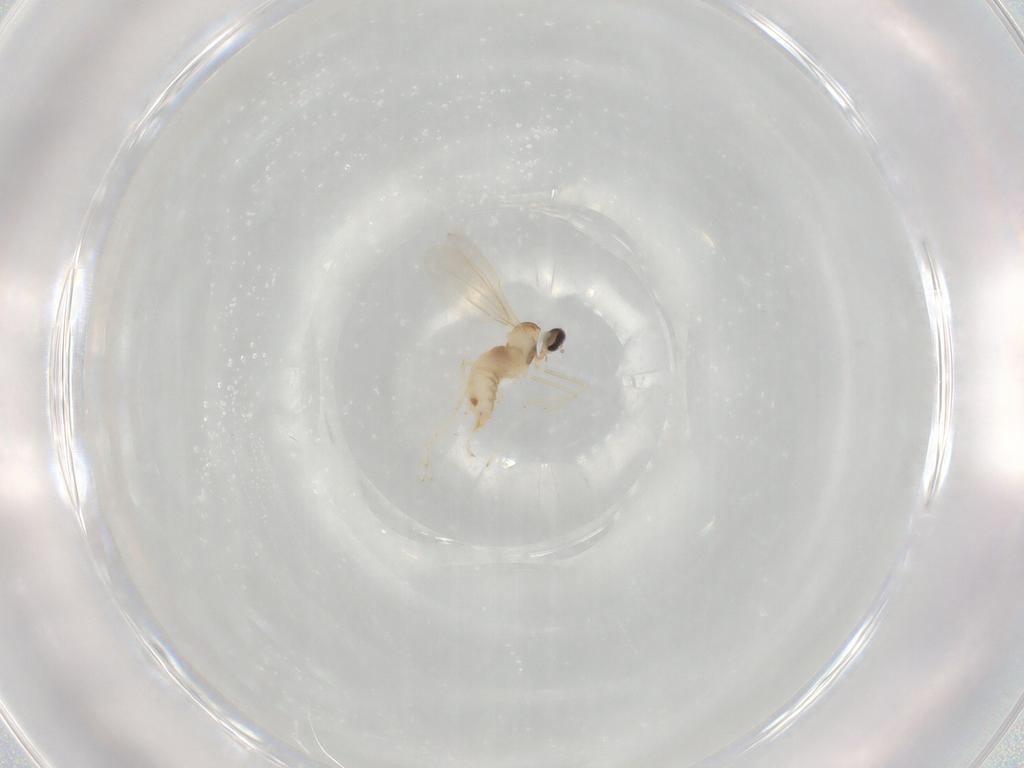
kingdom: Animalia
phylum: Arthropoda
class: Insecta
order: Diptera
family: Cecidomyiidae
